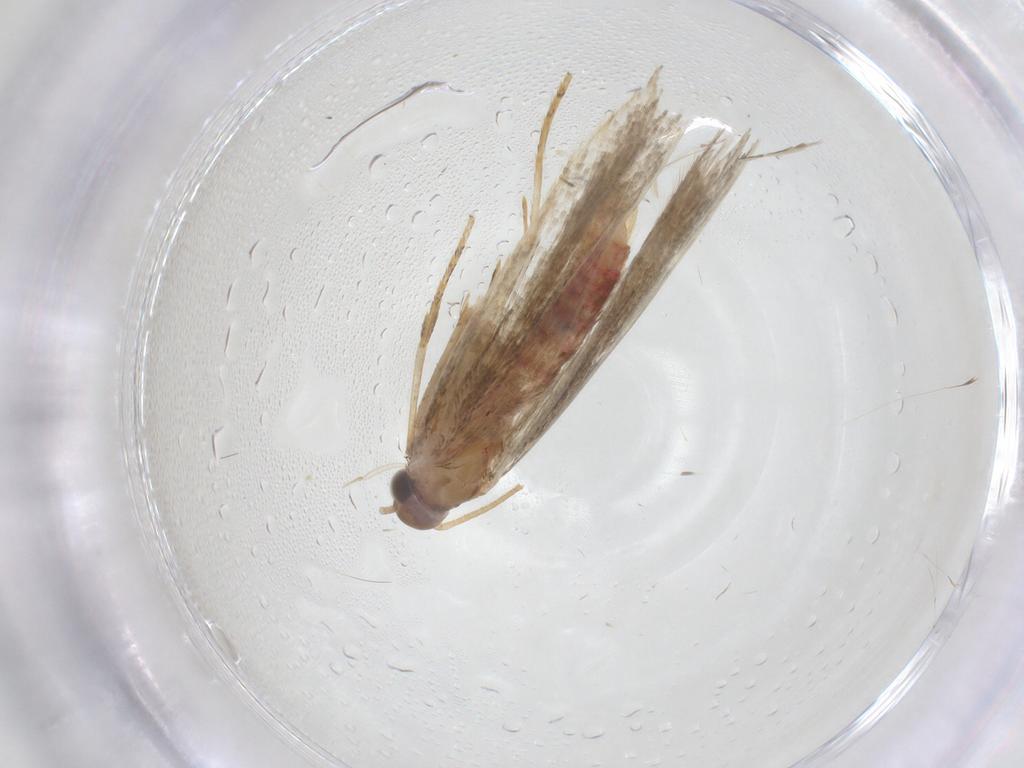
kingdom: Animalia
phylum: Arthropoda
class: Insecta
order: Lepidoptera
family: Crambidae
